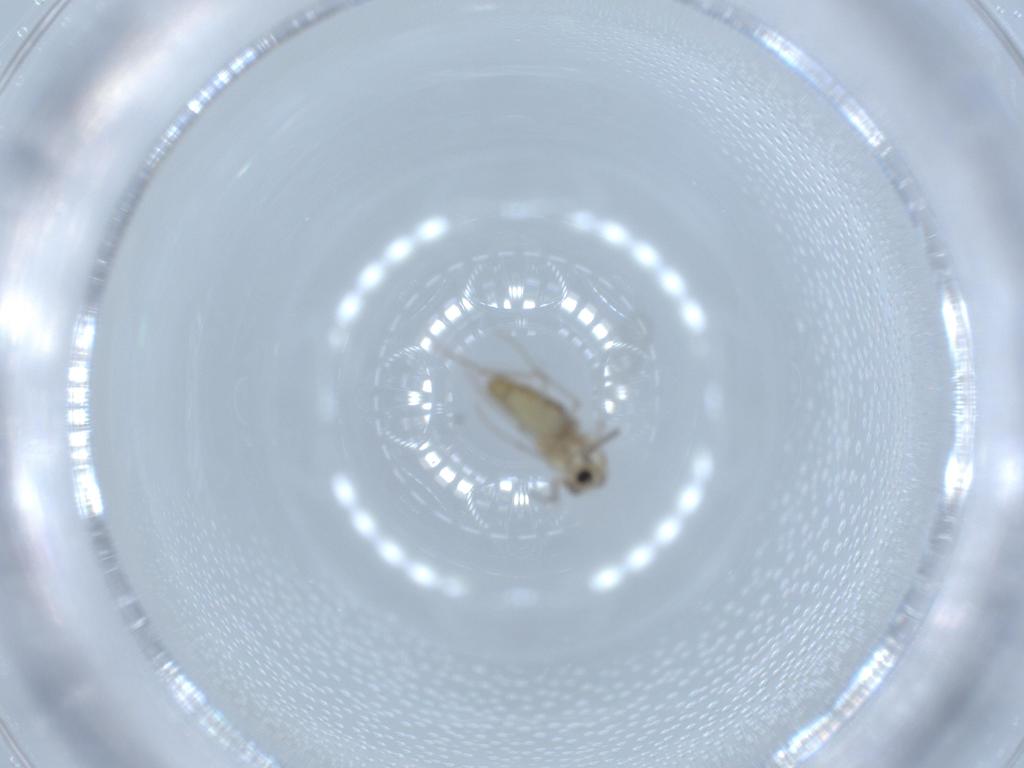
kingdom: Animalia
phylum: Arthropoda
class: Insecta
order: Diptera
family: Chironomidae
